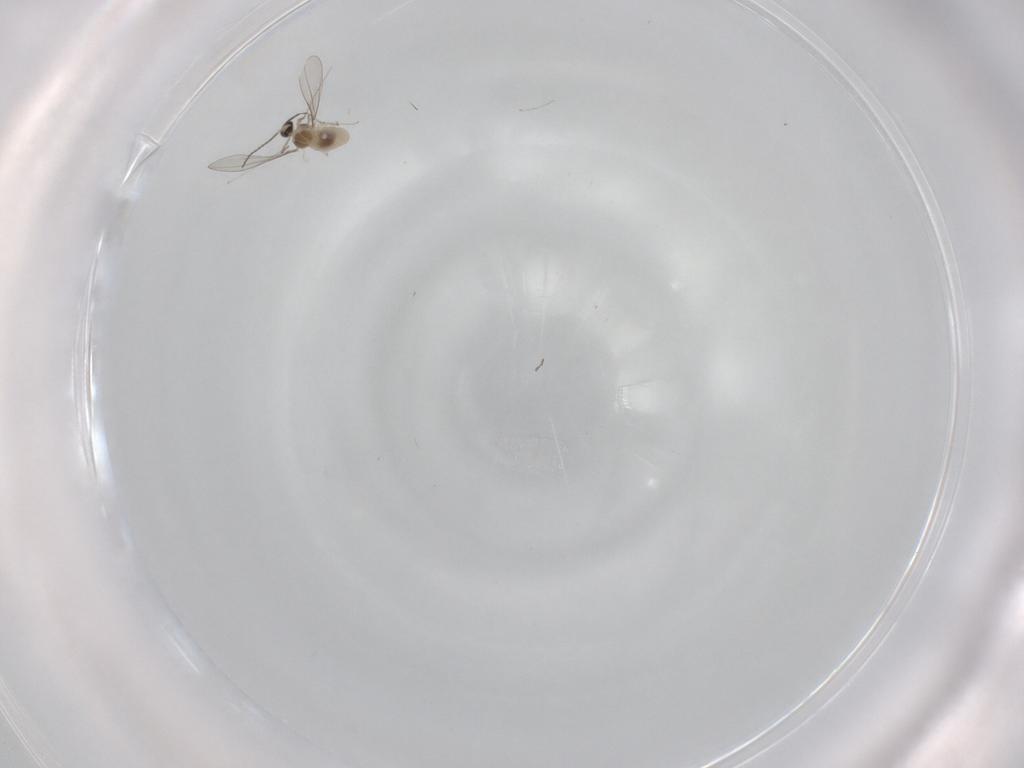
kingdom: Animalia
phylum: Arthropoda
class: Insecta
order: Diptera
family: Cecidomyiidae
